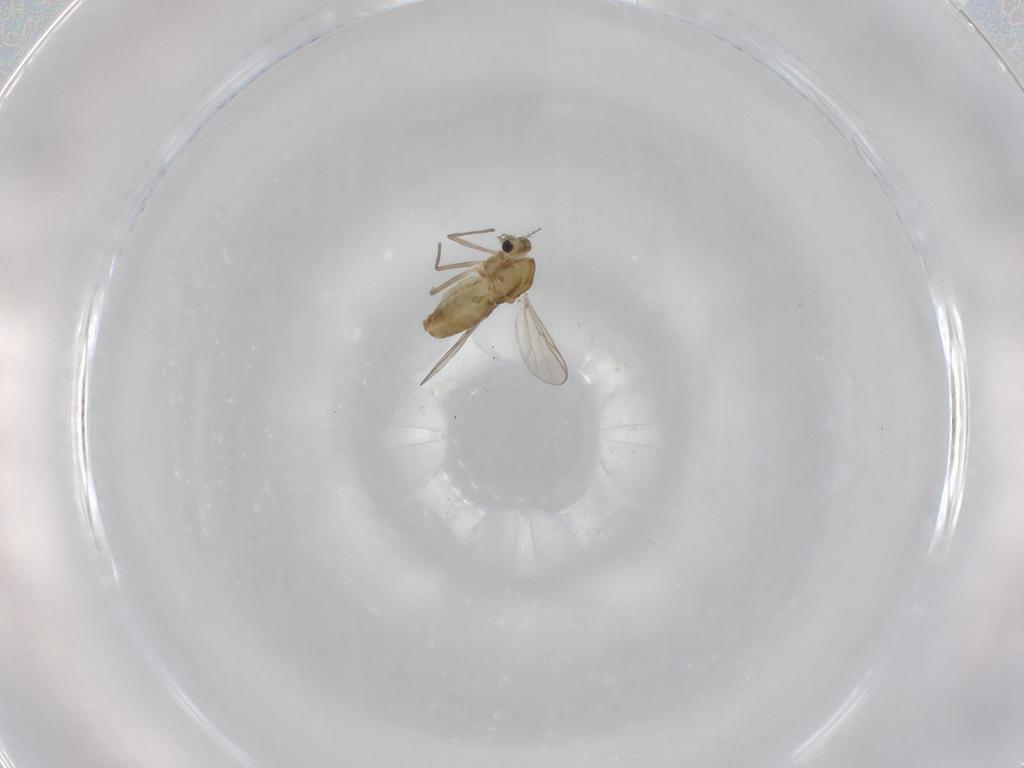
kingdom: Animalia
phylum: Arthropoda
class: Insecta
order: Diptera
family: Chironomidae
